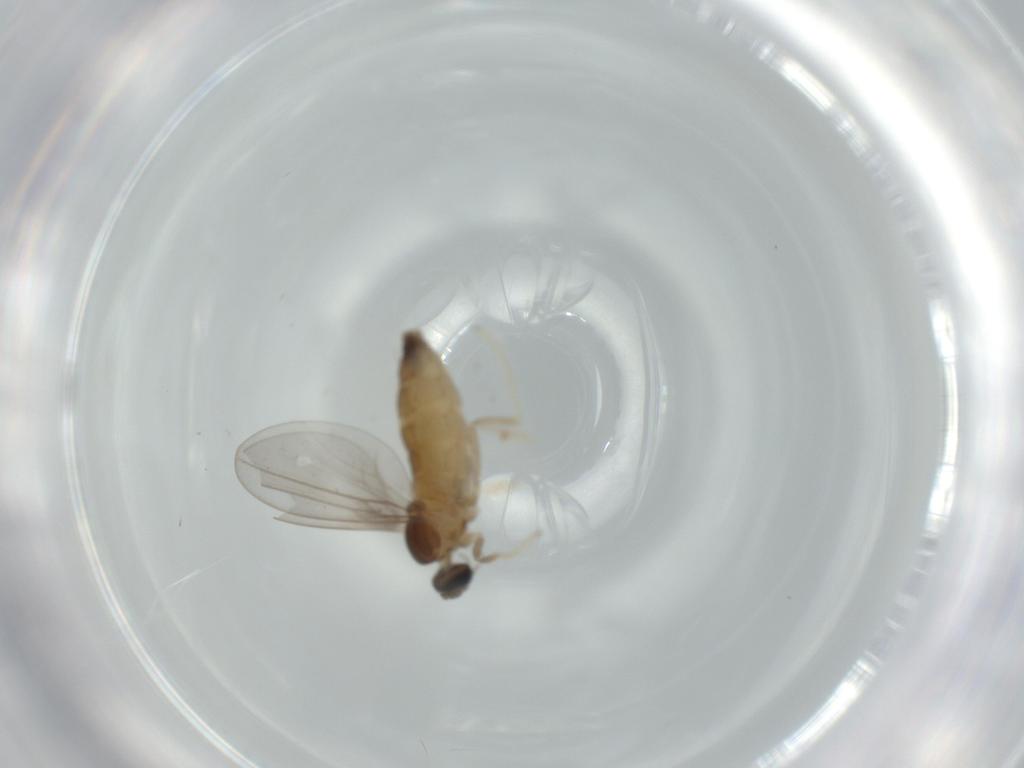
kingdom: Animalia
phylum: Arthropoda
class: Insecta
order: Diptera
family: Cecidomyiidae
